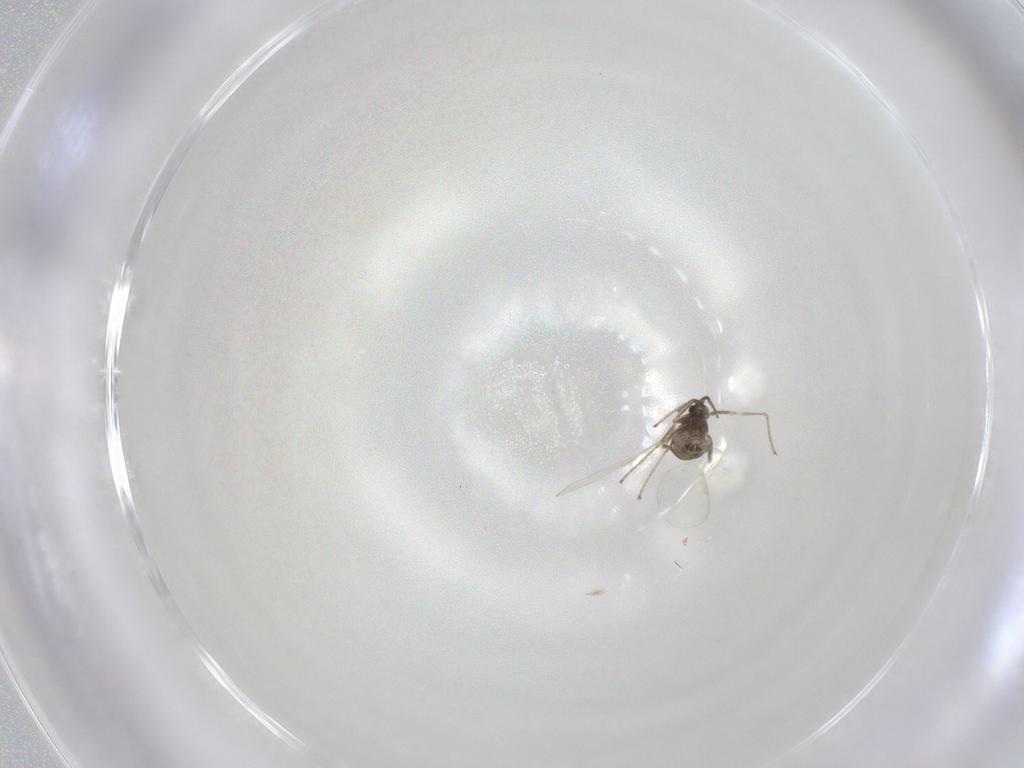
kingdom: Animalia
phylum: Arthropoda
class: Insecta
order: Diptera
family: Cecidomyiidae
